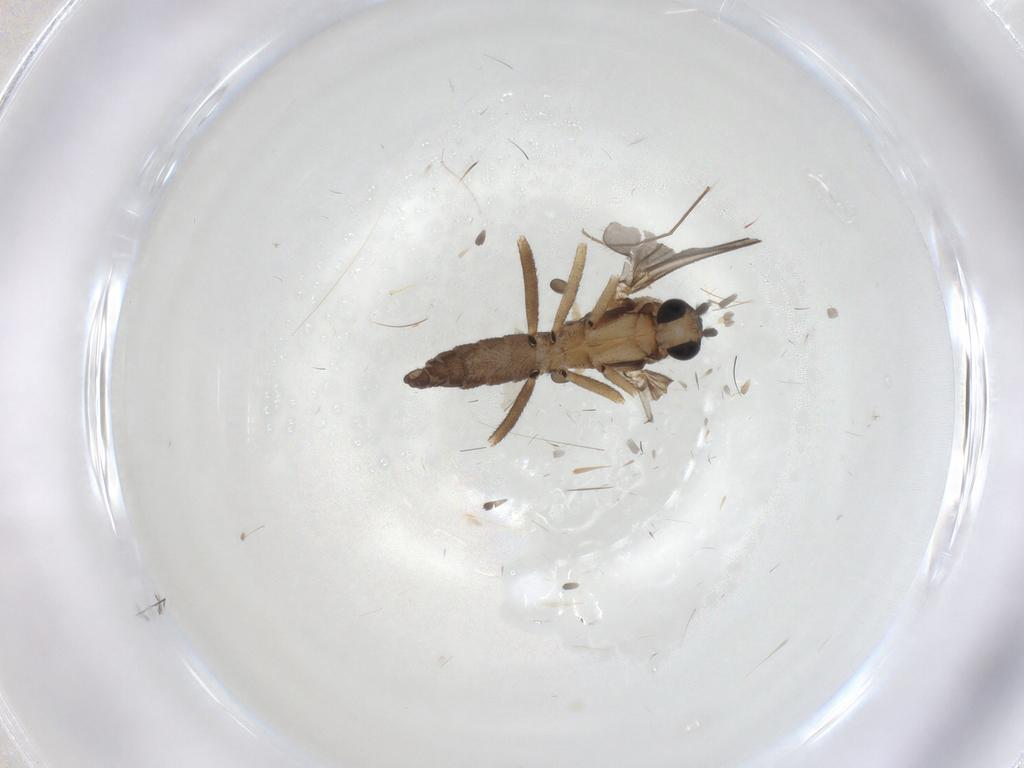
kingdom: Animalia
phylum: Arthropoda
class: Insecta
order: Diptera
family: Sciaridae
